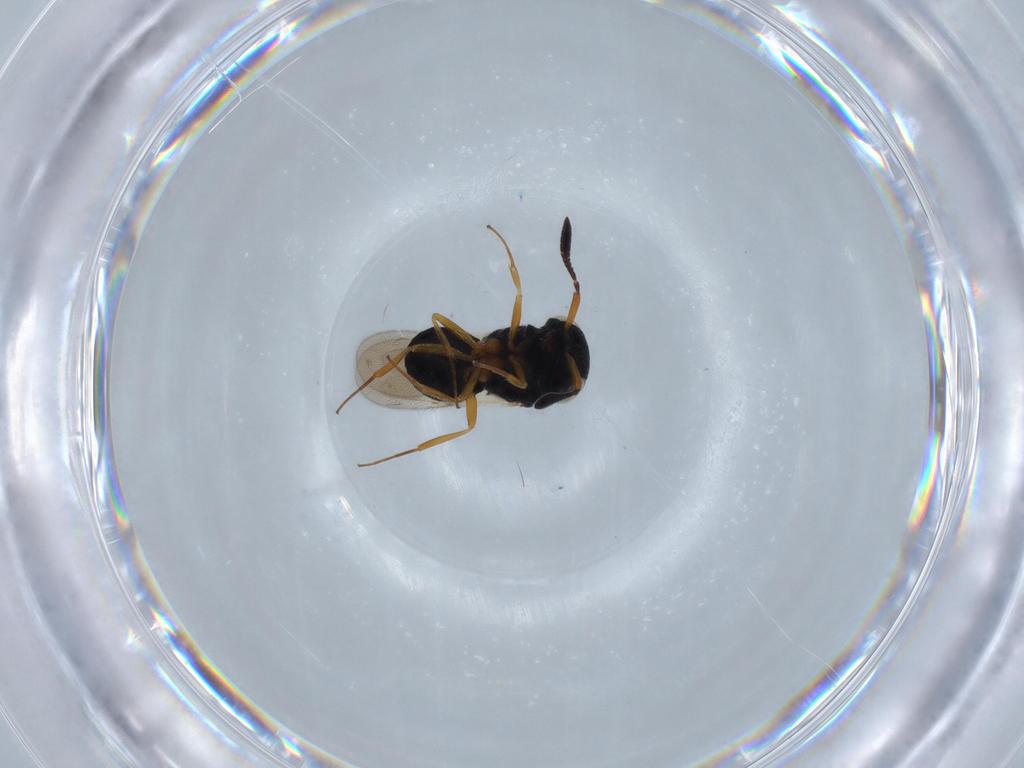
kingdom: Animalia
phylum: Arthropoda
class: Insecta
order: Hymenoptera
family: Scelionidae
